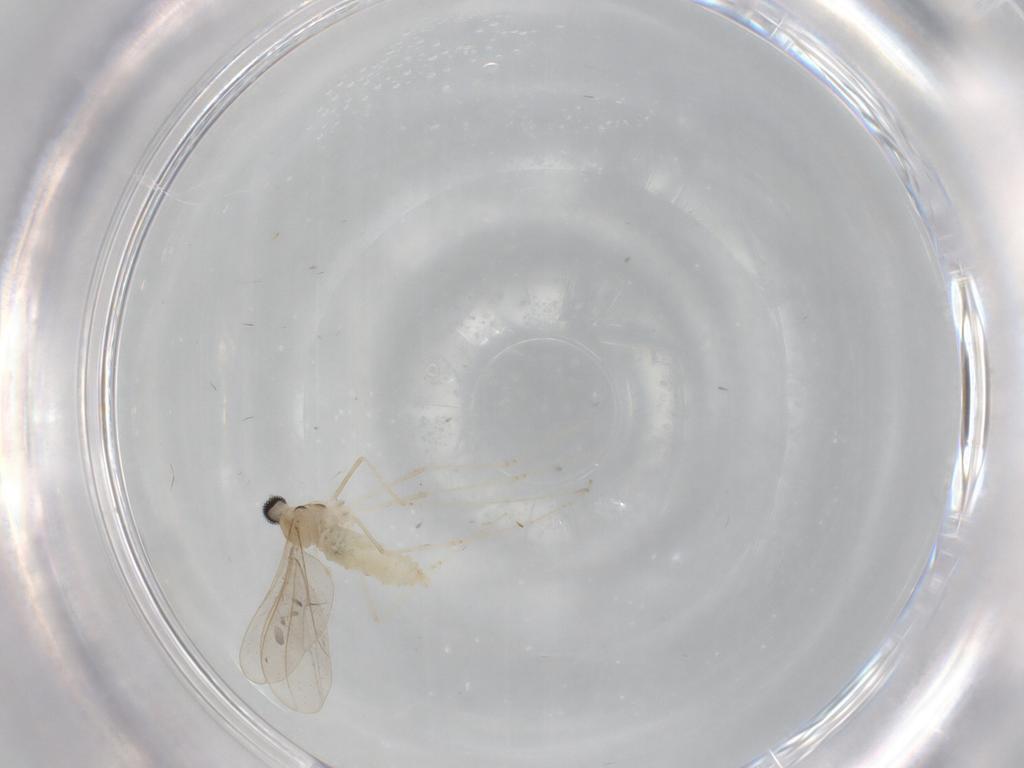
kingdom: Animalia
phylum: Arthropoda
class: Insecta
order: Diptera
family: Cecidomyiidae
